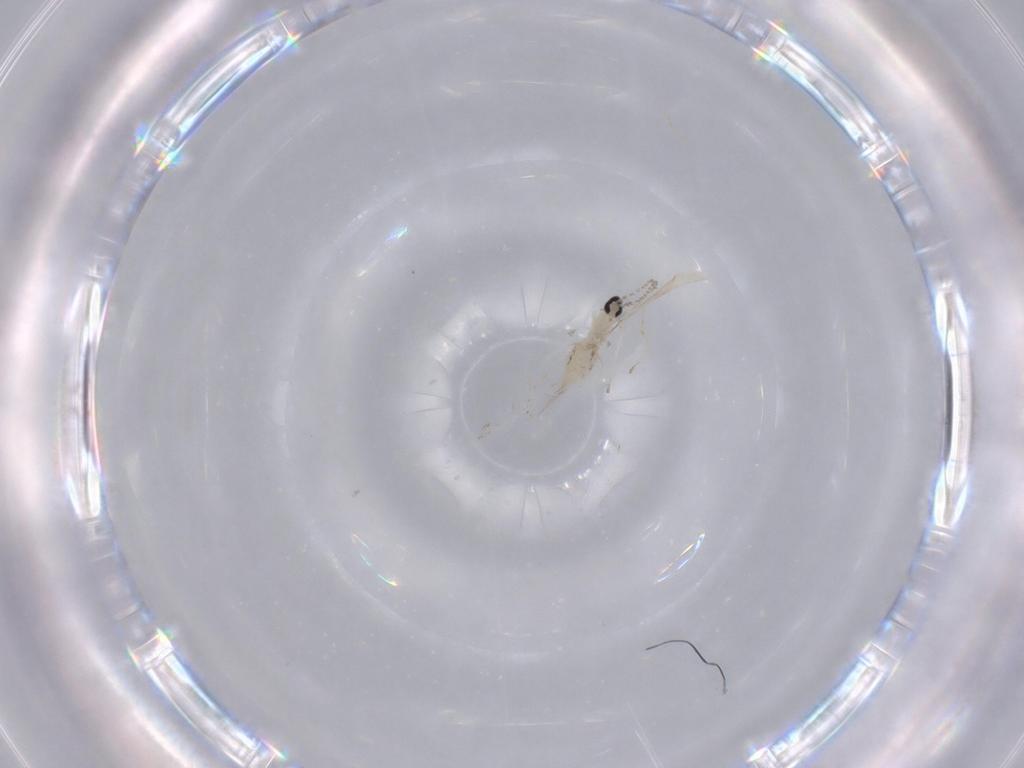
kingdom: Animalia
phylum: Arthropoda
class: Insecta
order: Diptera
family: Cecidomyiidae
